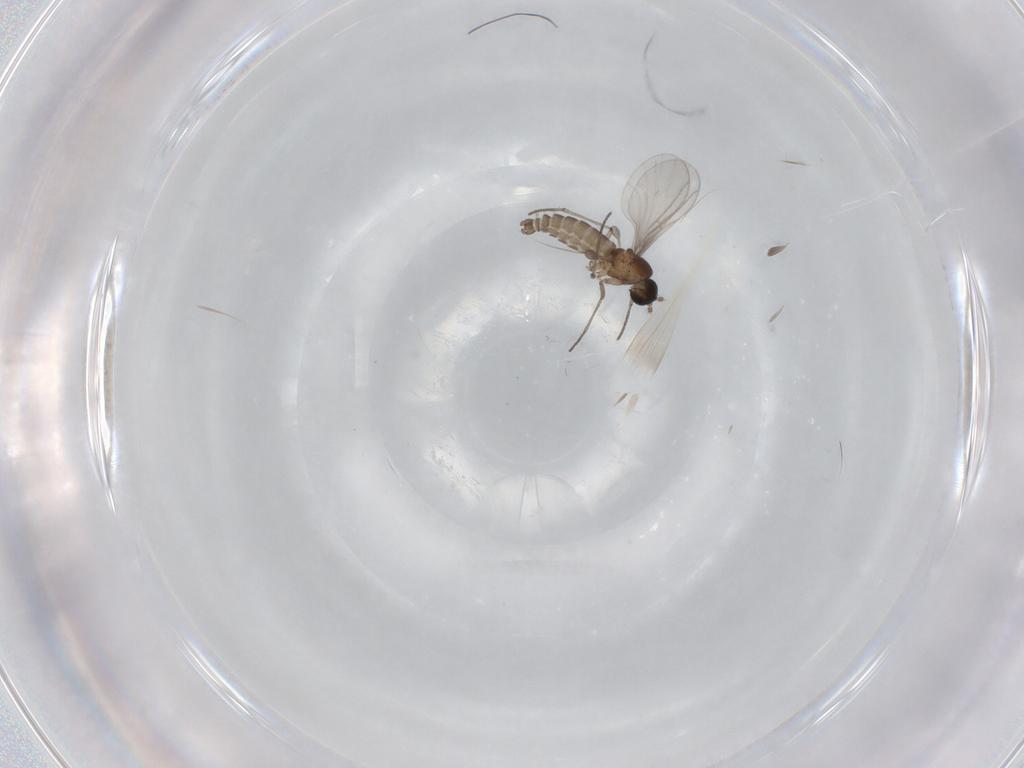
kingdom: Animalia
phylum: Arthropoda
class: Insecta
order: Diptera
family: Sciaridae
